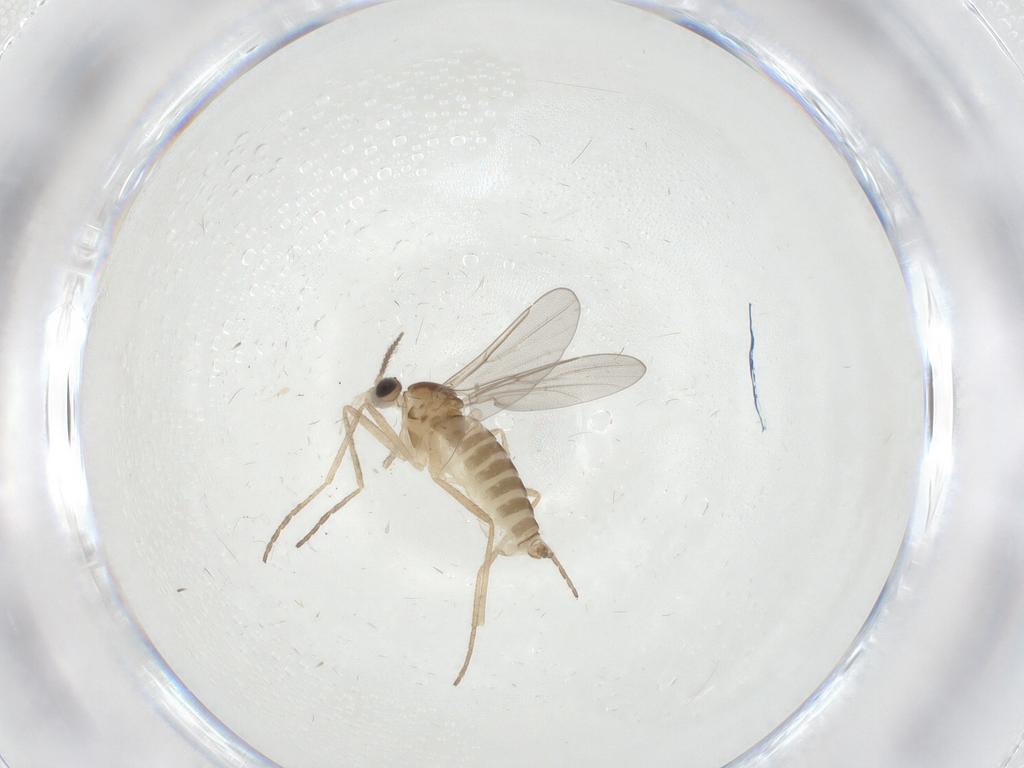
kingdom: Animalia
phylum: Arthropoda
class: Insecta
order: Diptera
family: Cecidomyiidae
